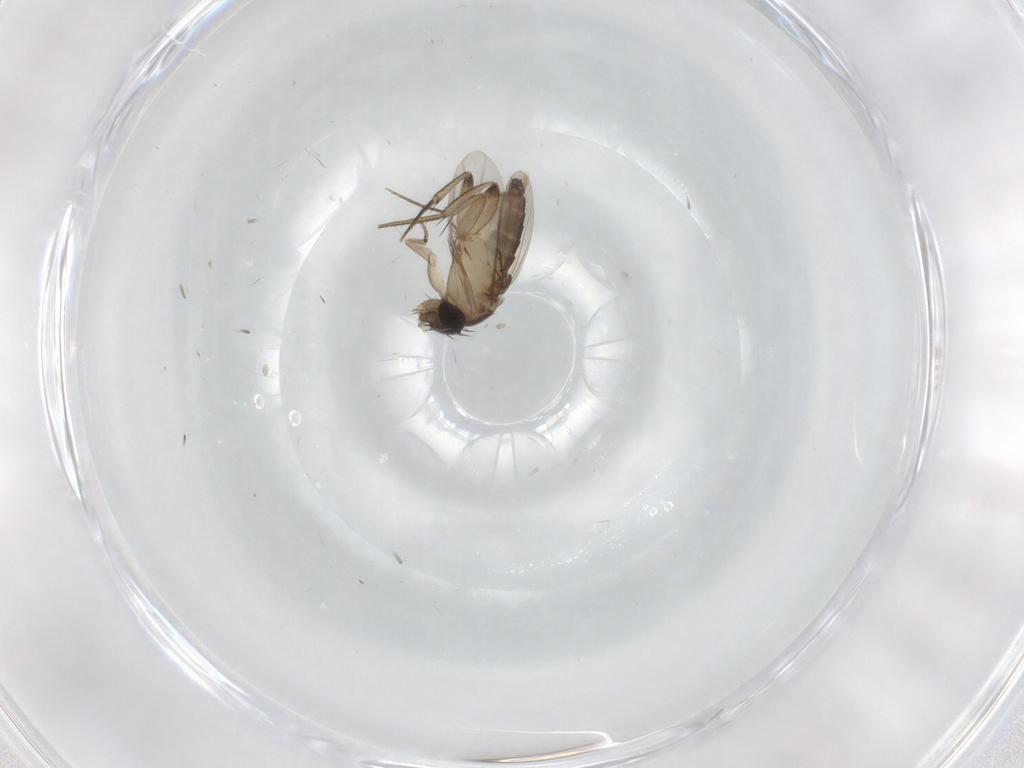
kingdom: Animalia
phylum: Arthropoda
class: Insecta
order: Diptera
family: Phoridae
